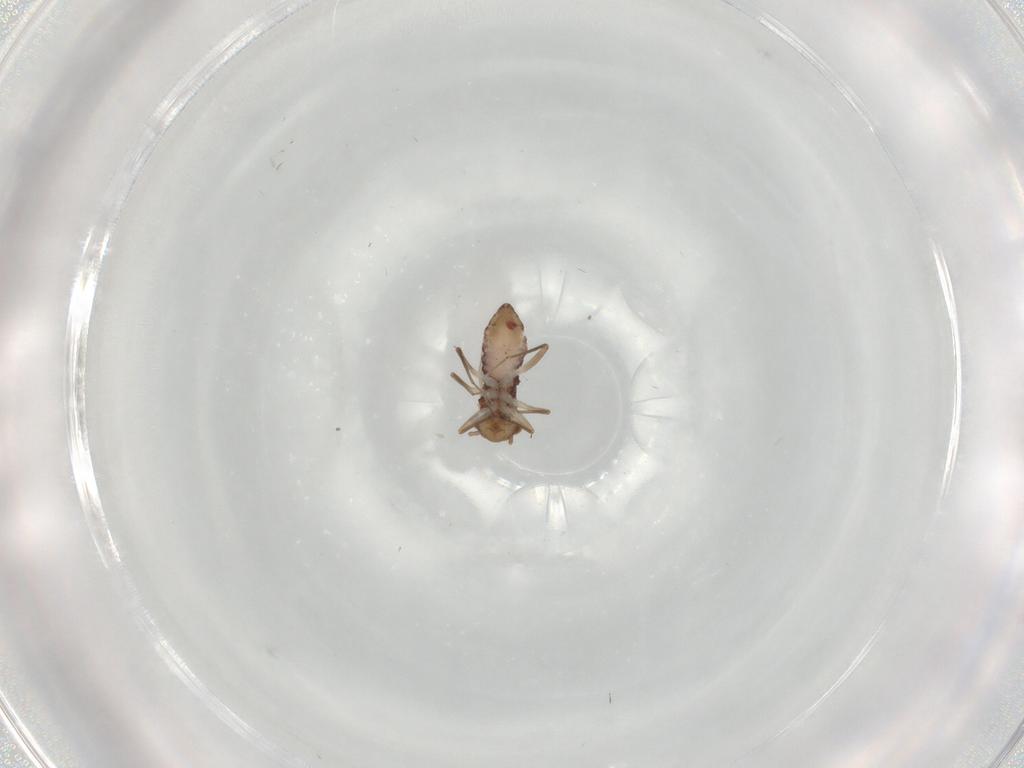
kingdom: Animalia
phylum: Arthropoda
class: Insecta
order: Psocodea
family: Lepidopsocidae
